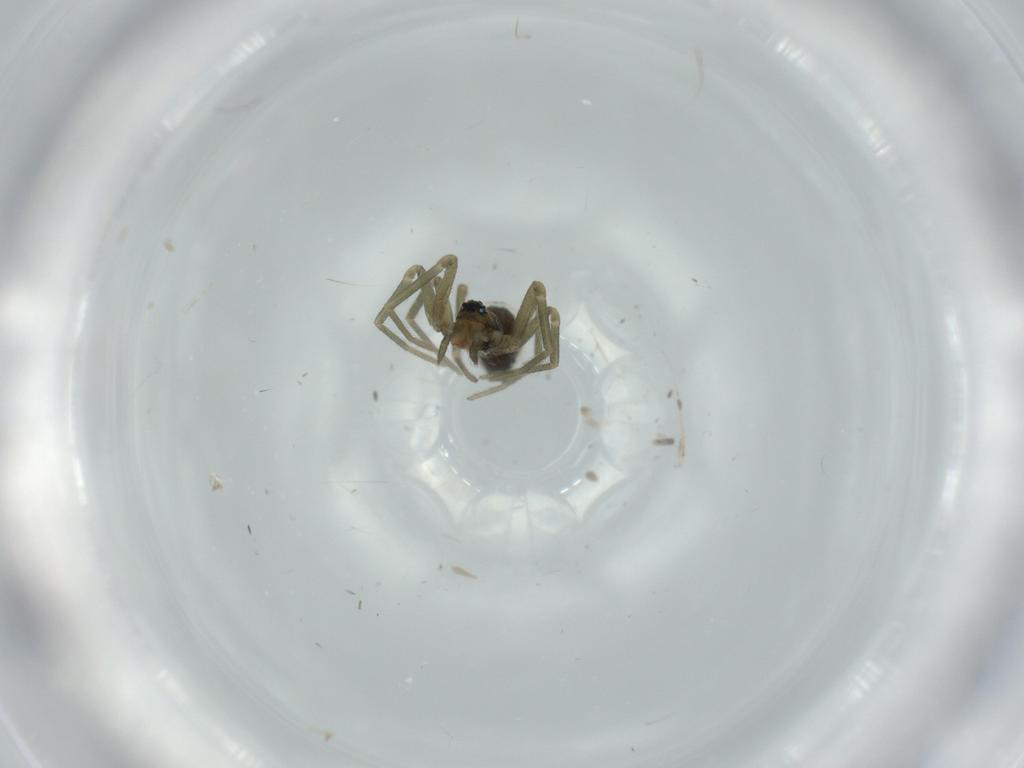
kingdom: Animalia
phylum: Arthropoda
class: Arachnida
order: Araneae
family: Linyphiidae
